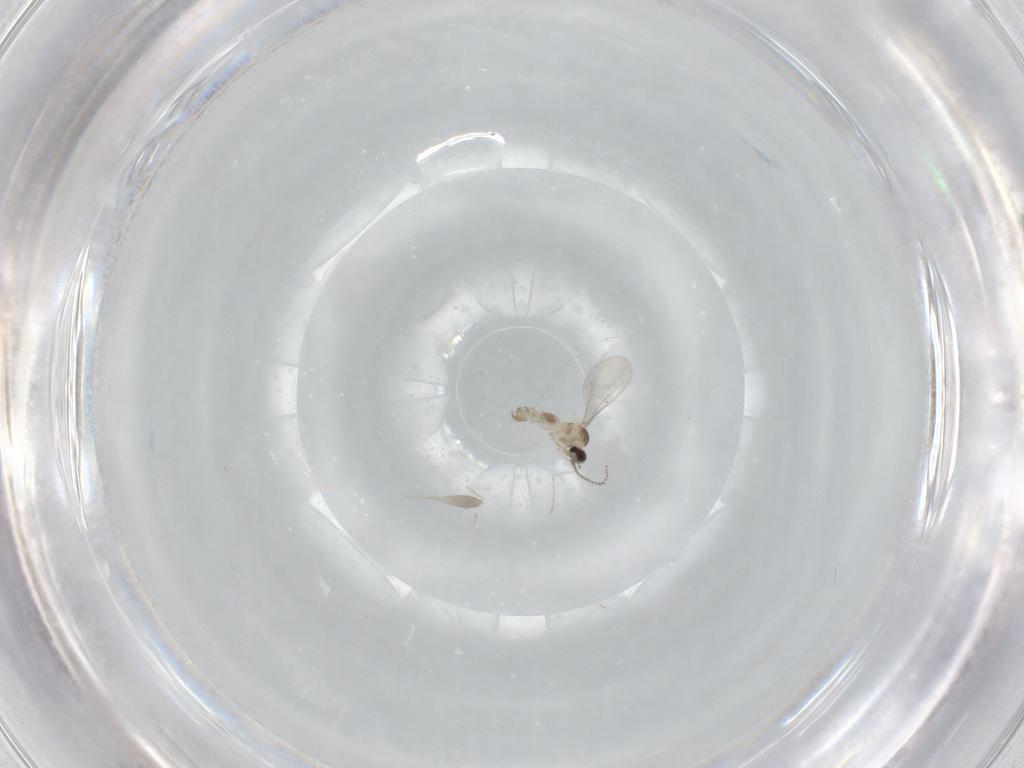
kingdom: Animalia
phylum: Arthropoda
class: Insecta
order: Diptera
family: Cecidomyiidae
